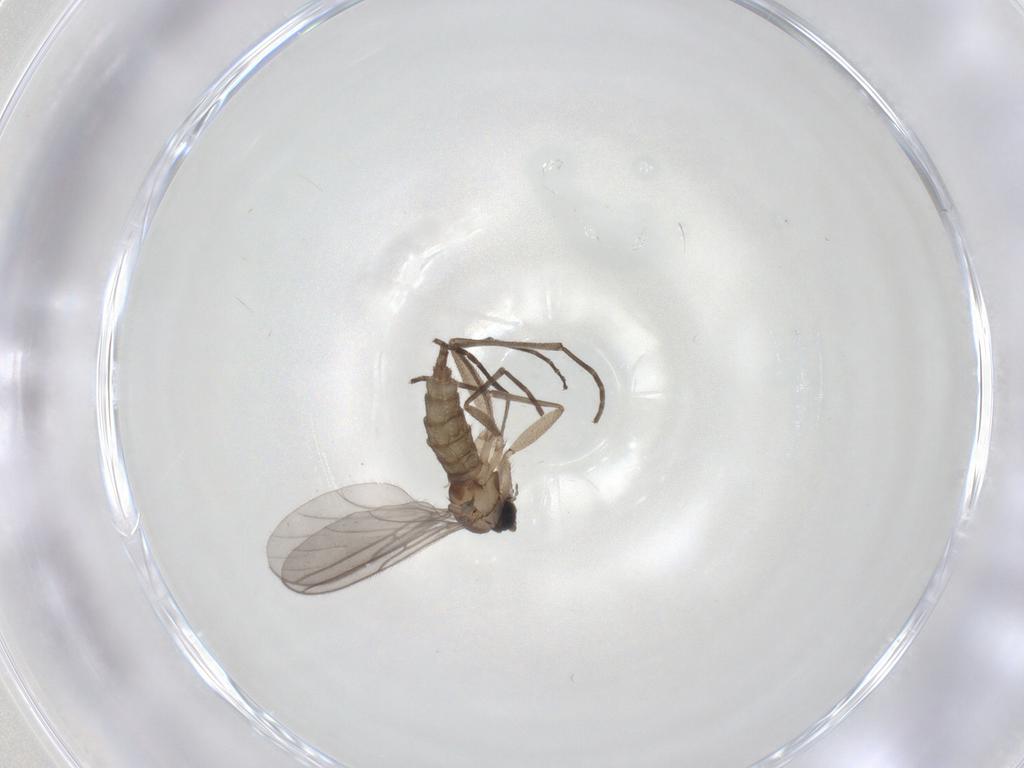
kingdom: Animalia
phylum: Arthropoda
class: Insecta
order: Diptera
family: Sciaridae
